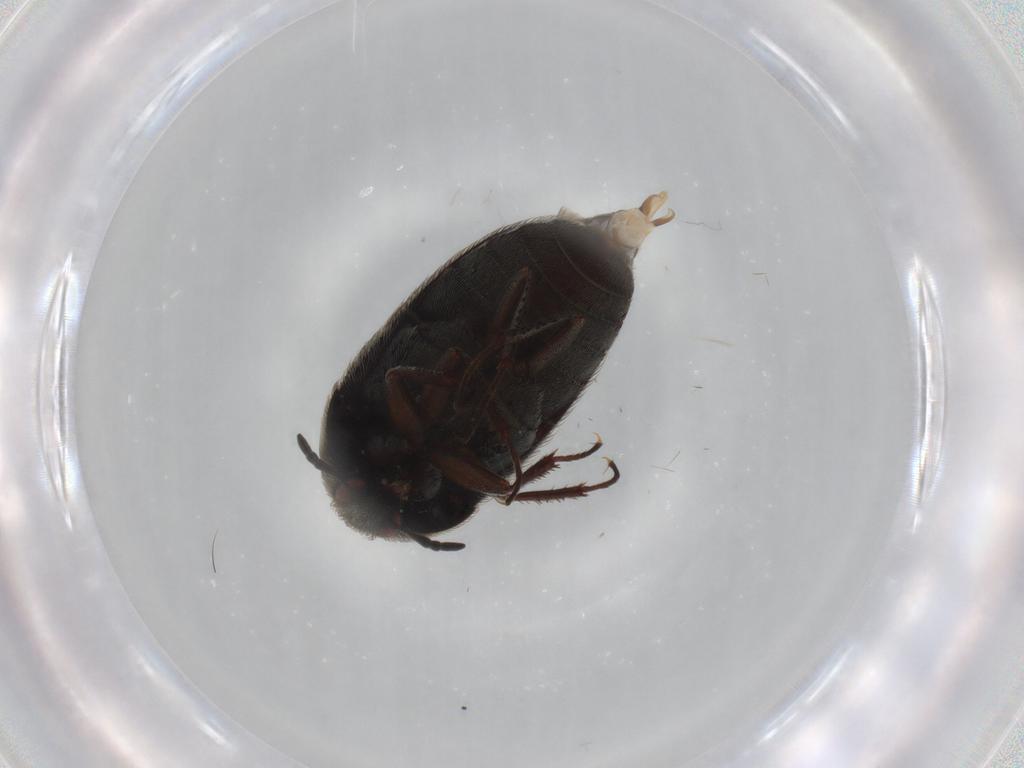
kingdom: Animalia
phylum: Arthropoda
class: Insecta
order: Coleoptera
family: Dermestidae
